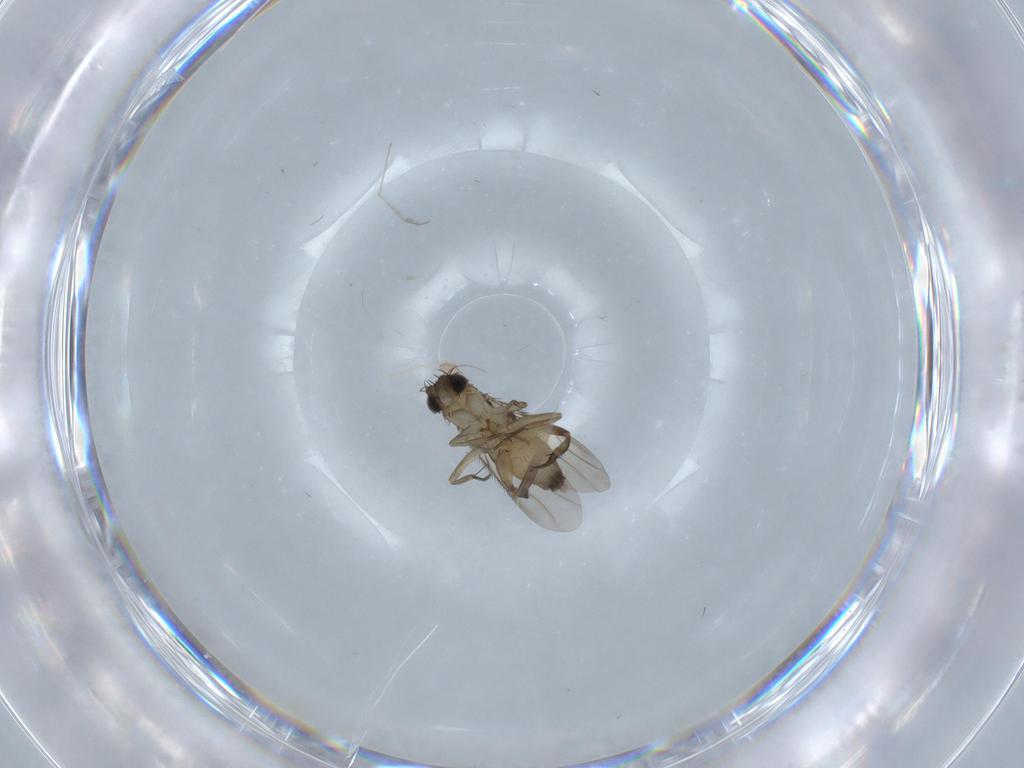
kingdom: Animalia
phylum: Arthropoda
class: Insecta
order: Diptera
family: Phoridae
